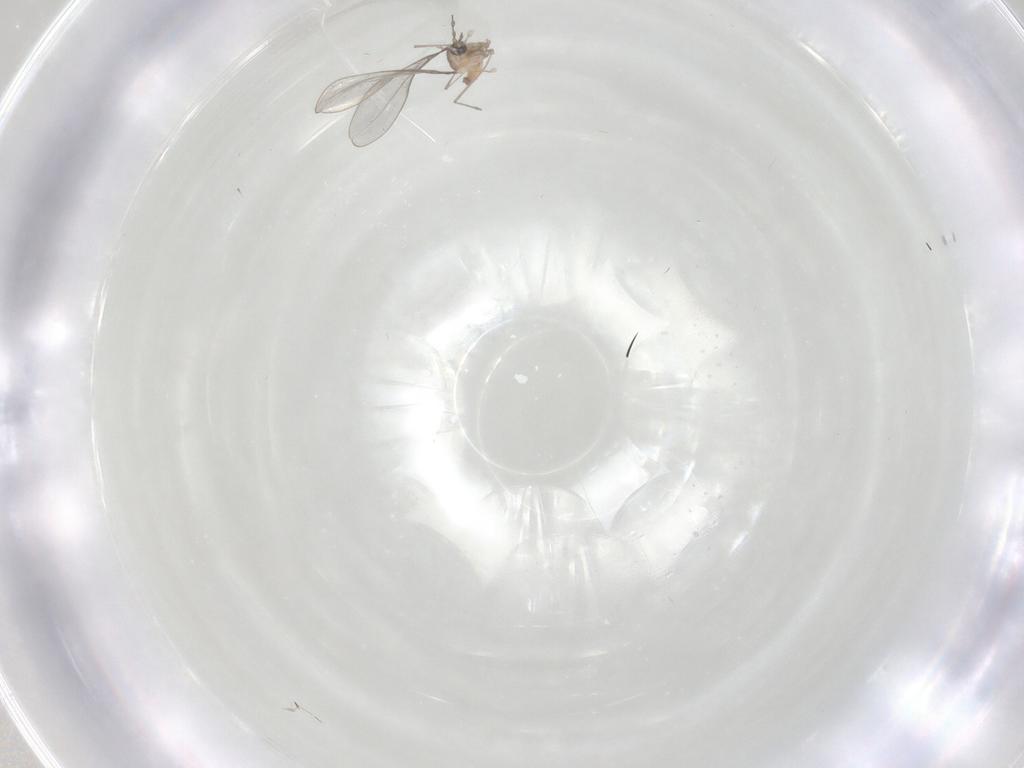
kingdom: Animalia
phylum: Arthropoda
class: Insecta
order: Diptera
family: Cecidomyiidae
